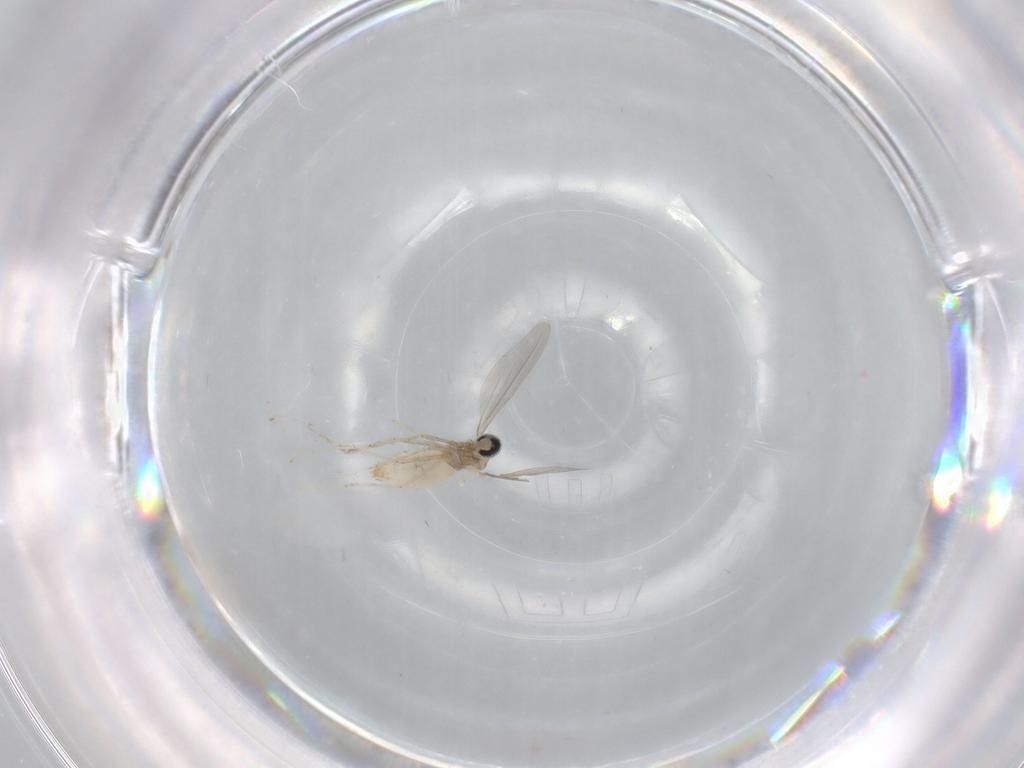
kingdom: Animalia
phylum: Arthropoda
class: Insecta
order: Diptera
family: Cecidomyiidae
